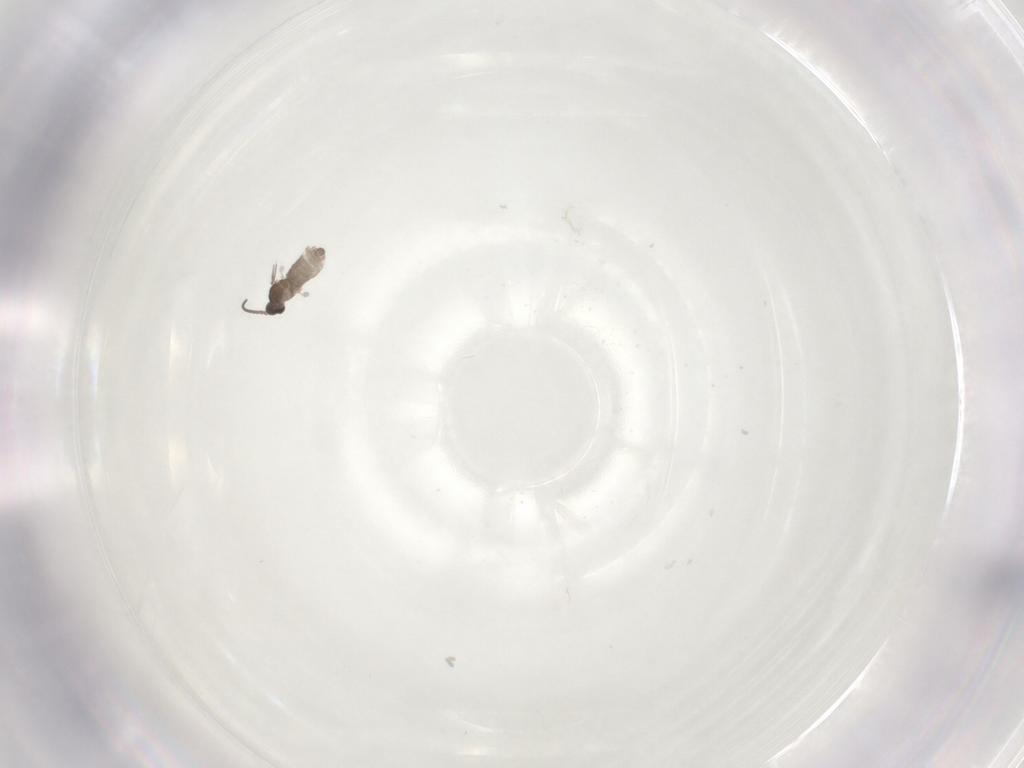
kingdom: Animalia
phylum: Arthropoda
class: Insecta
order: Diptera
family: Cecidomyiidae
